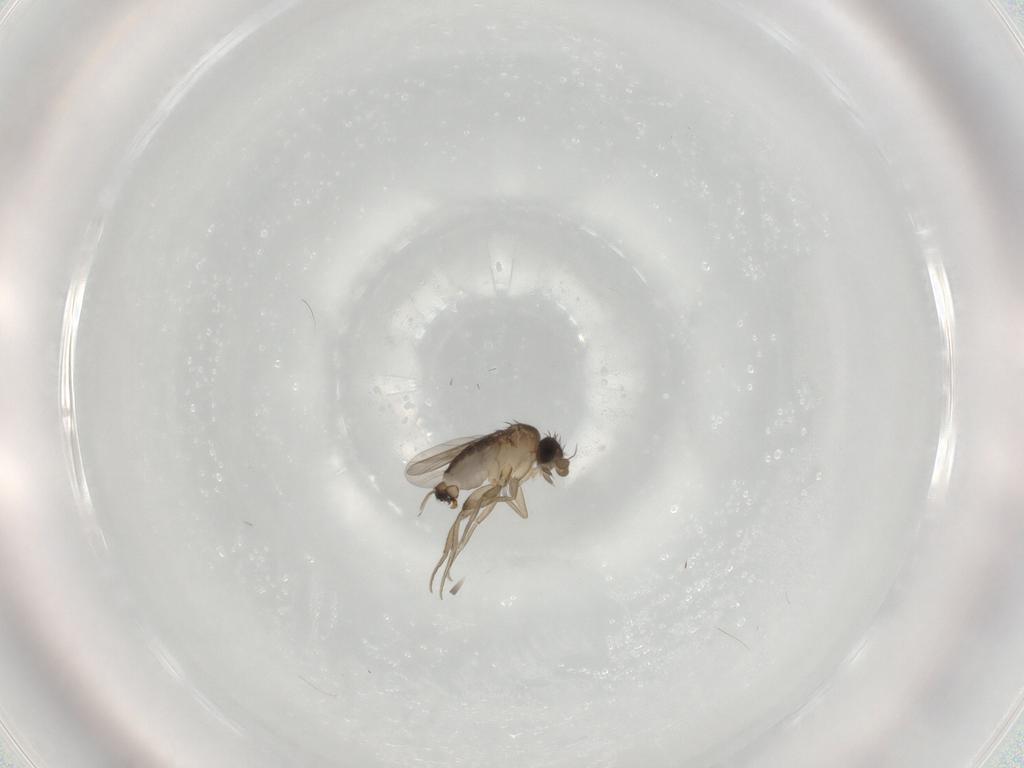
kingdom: Animalia
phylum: Arthropoda
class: Insecta
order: Diptera
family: Phoridae
